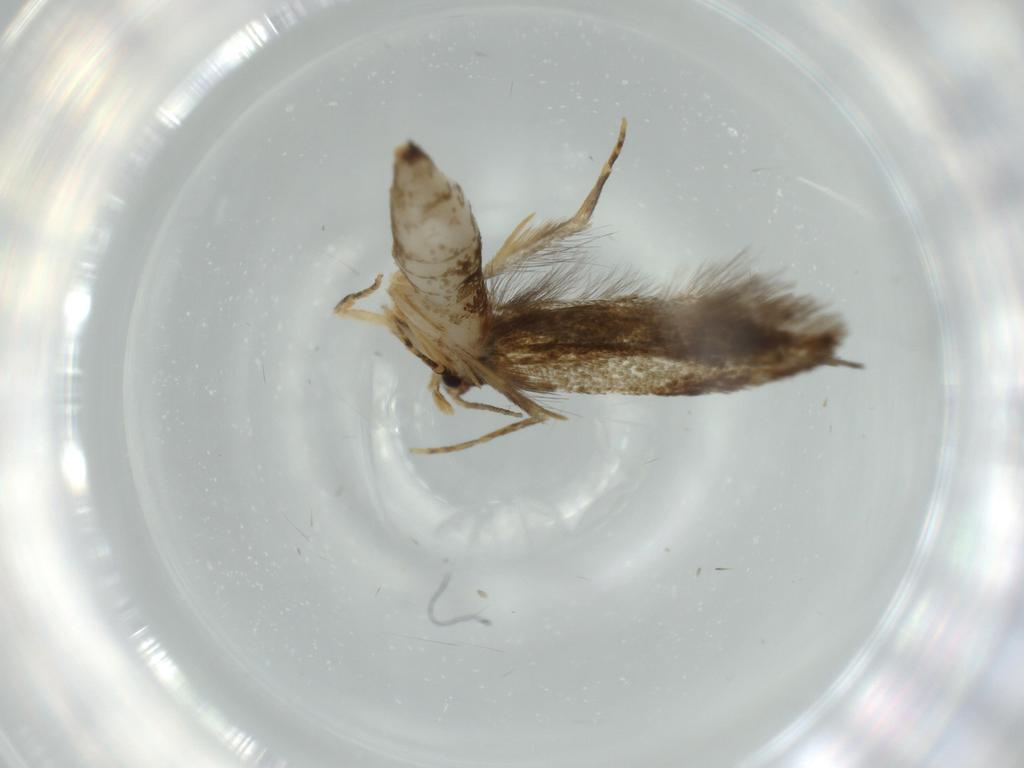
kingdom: Animalia
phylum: Arthropoda
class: Insecta
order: Lepidoptera
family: Tineidae
